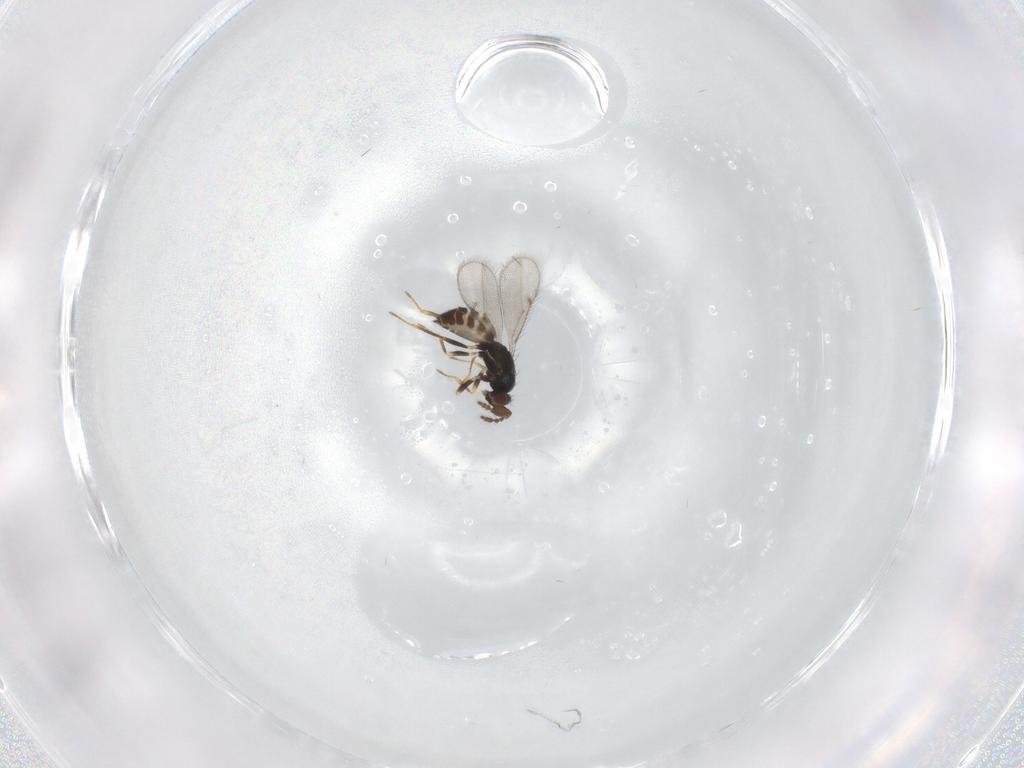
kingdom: Animalia
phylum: Arthropoda
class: Insecta
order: Hymenoptera
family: Eulophidae
